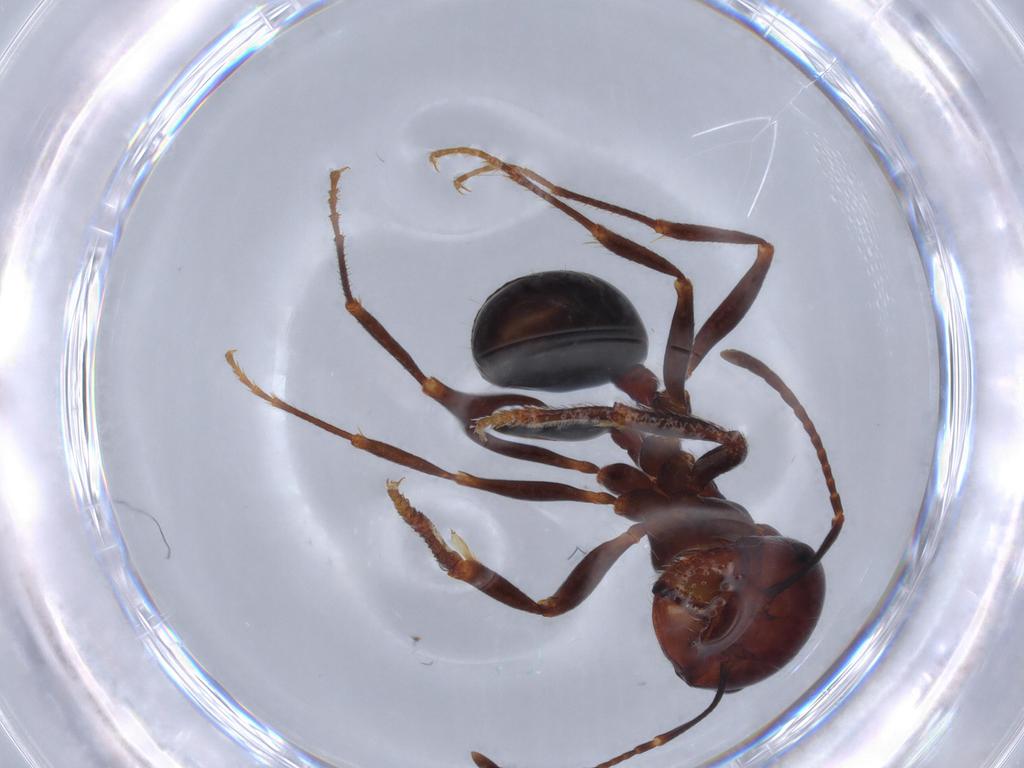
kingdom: Animalia
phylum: Arthropoda
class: Insecta
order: Hymenoptera
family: Formicidae
